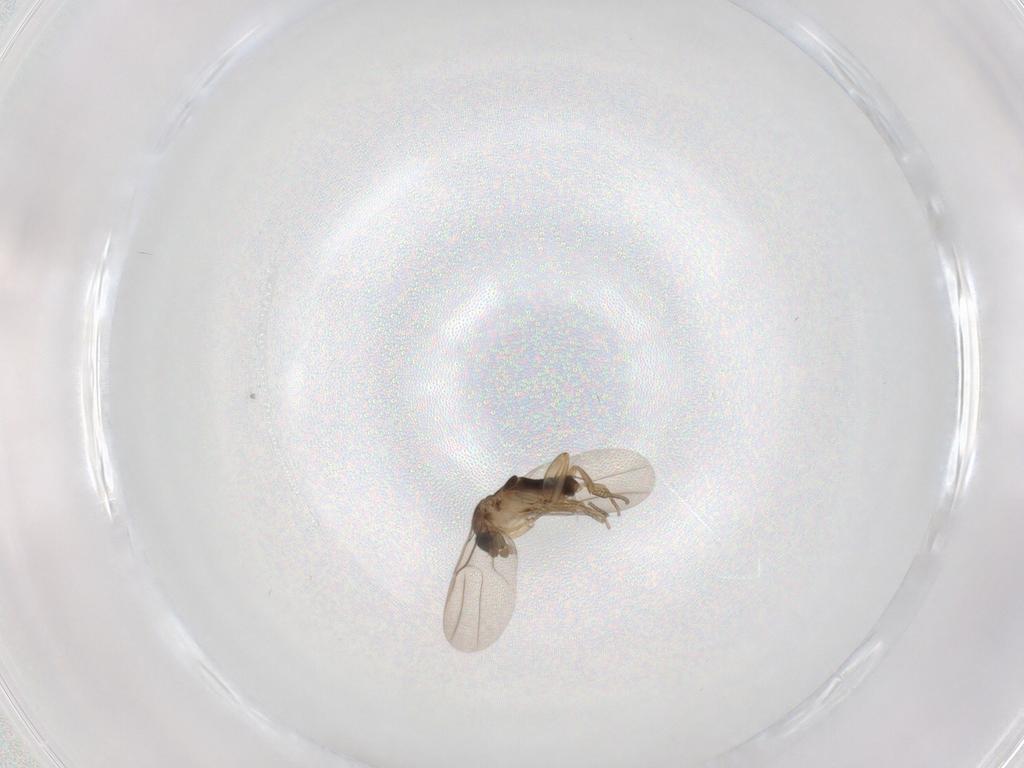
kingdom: Animalia
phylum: Arthropoda
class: Insecta
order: Diptera
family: Phoridae
